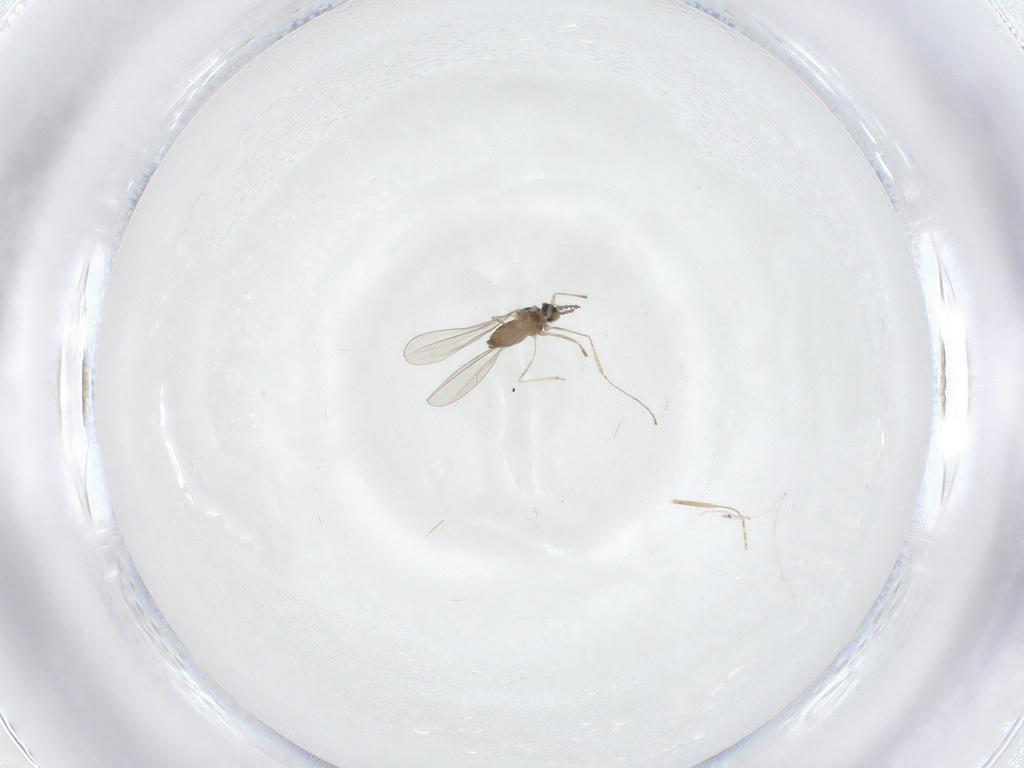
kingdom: Animalia
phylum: Arthropoda
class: Insecta
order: Diptera
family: Cecidomyiidae
